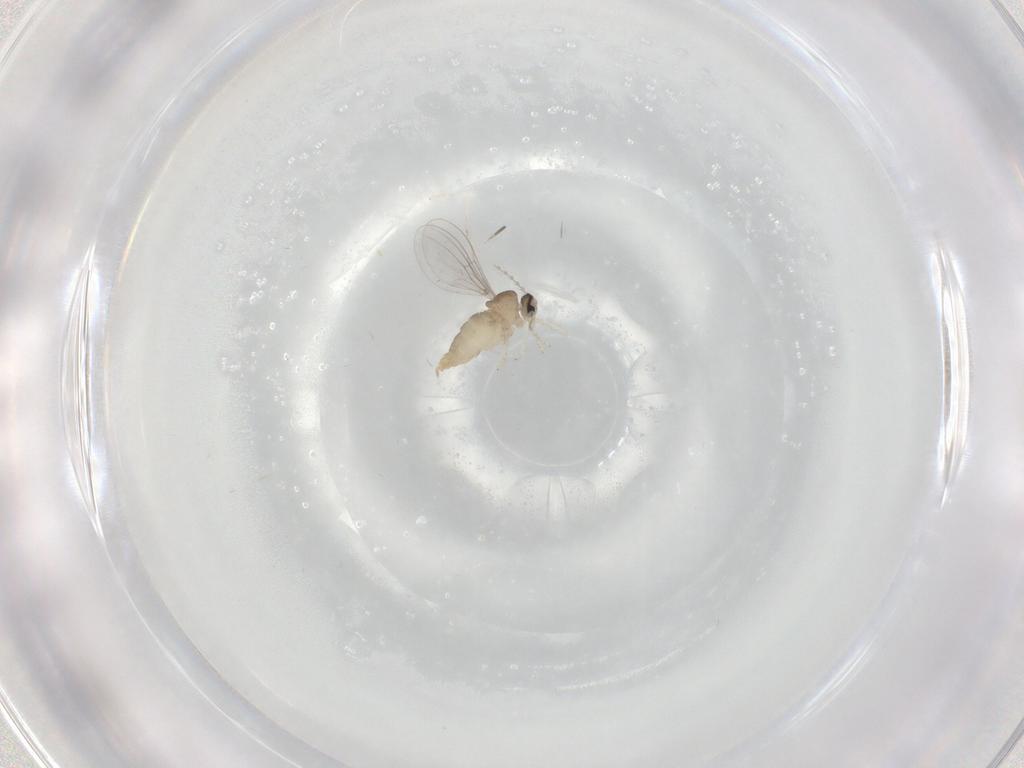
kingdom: Animalia
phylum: Arthropoda
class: Insecta
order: Diptera
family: Cecidomyiidae
